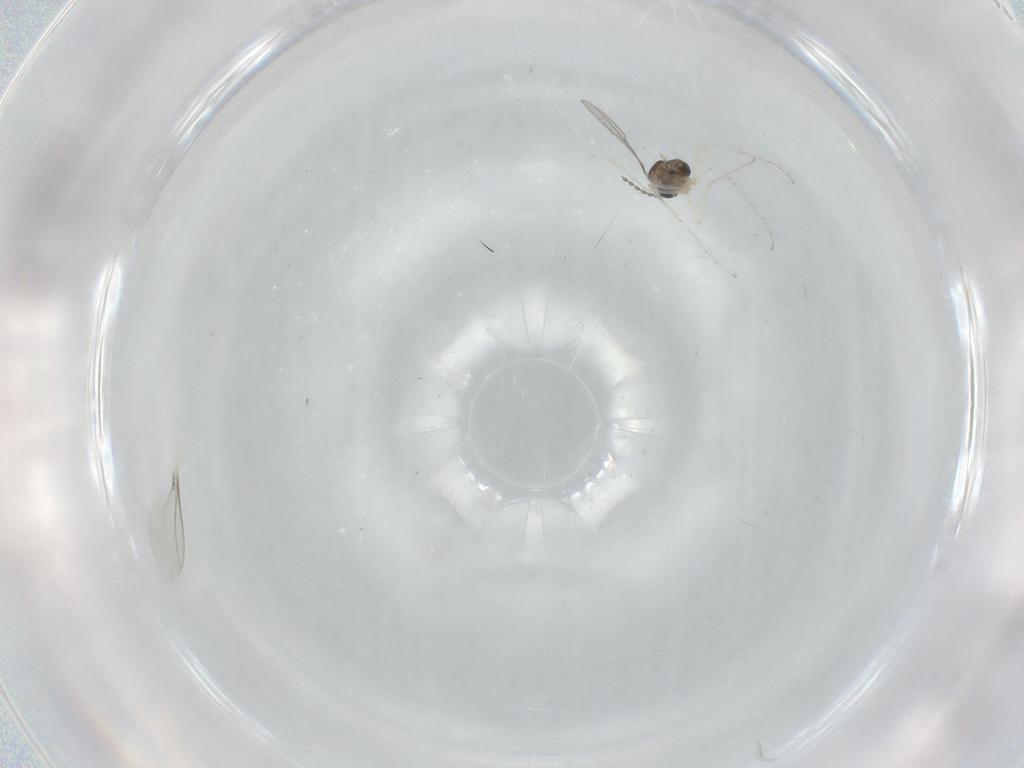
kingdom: Animalia
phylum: Arthropoda
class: Insecta
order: Diptera
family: Cecidomyiidae
